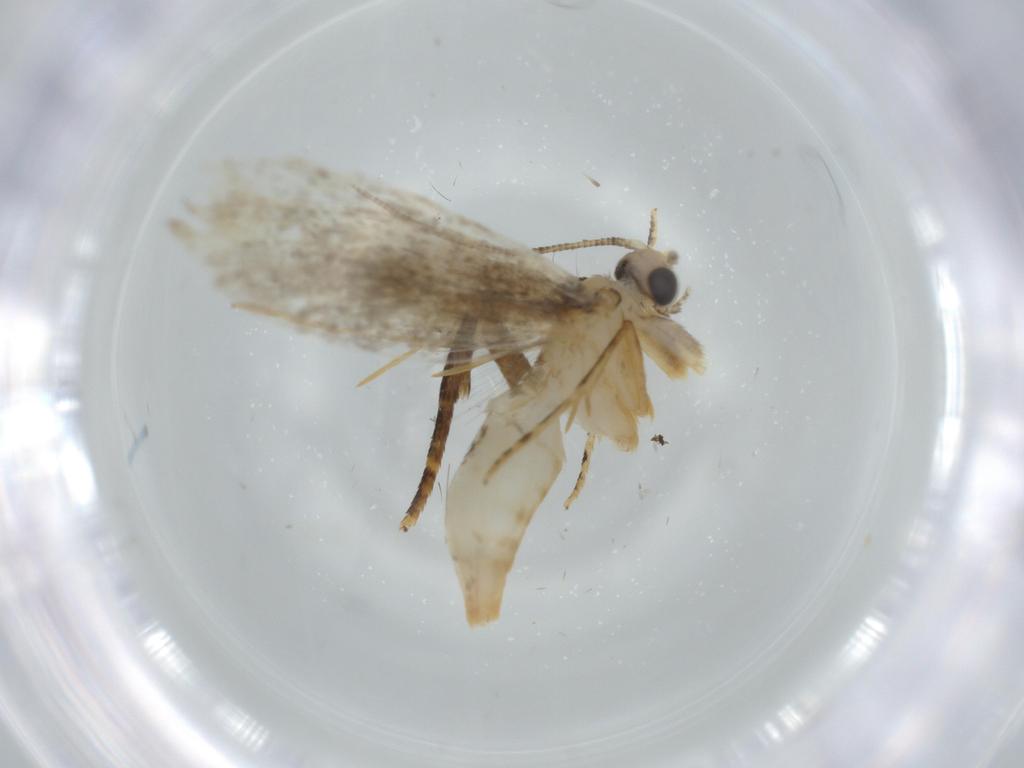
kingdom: Animalia
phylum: Arthropoda
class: Insecta
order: Lepidoptera
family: Tineidae
